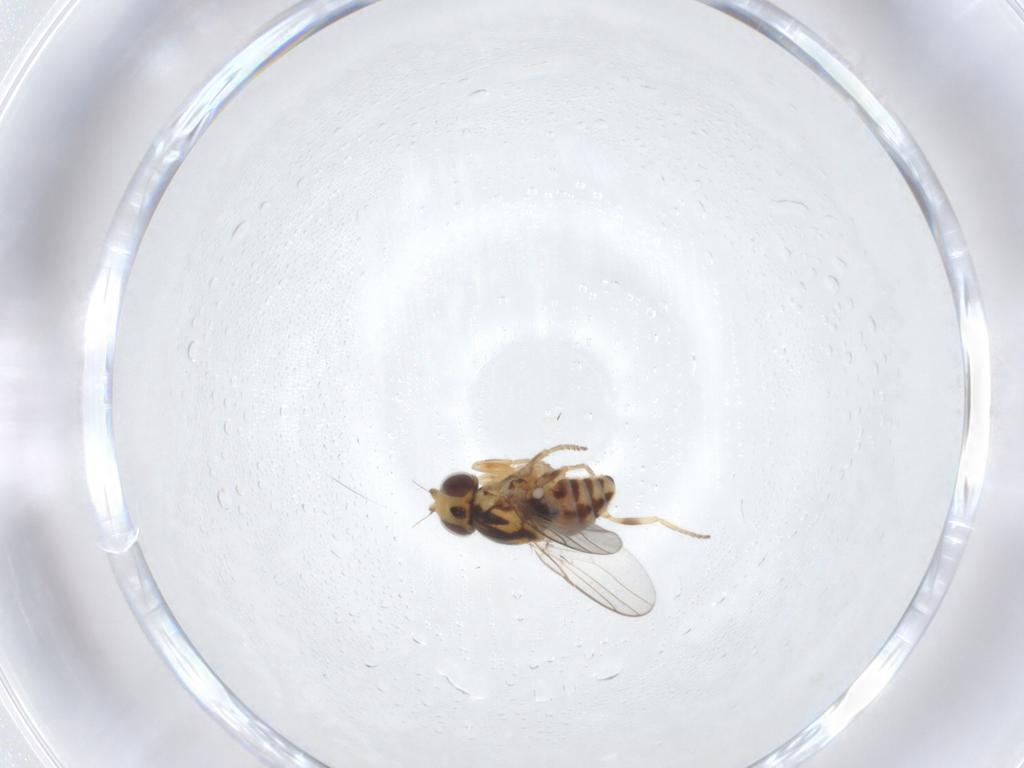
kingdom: Animalia
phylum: Arthropoda
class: Insecta
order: Diptera
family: Chloropidae
